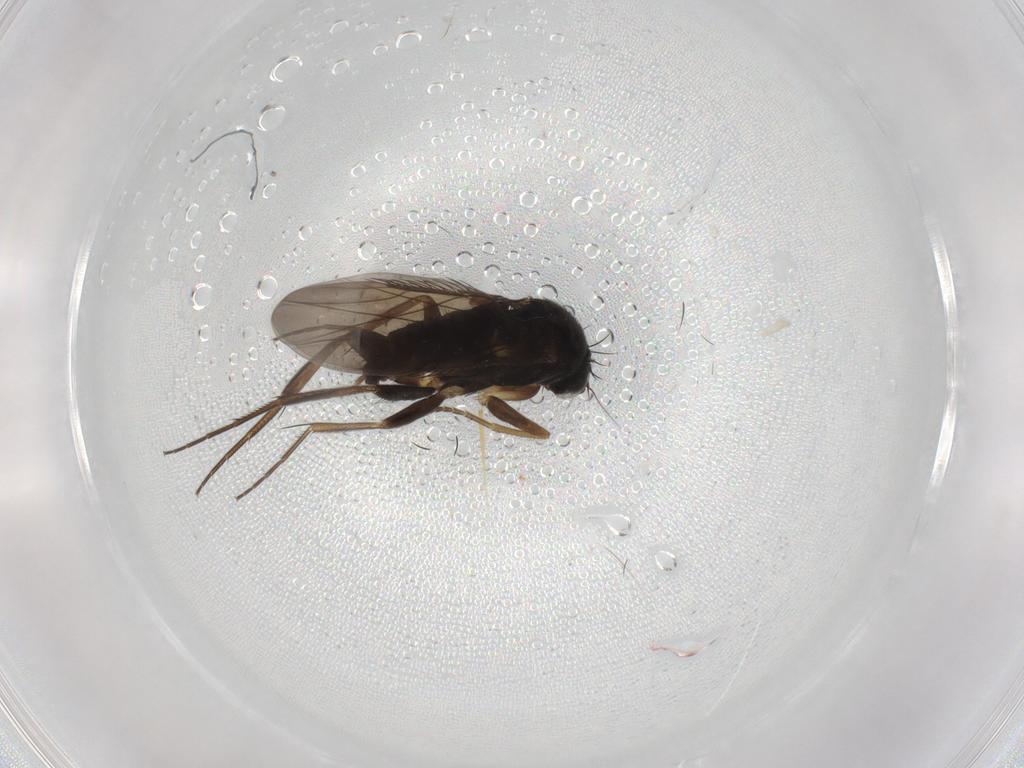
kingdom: Animalia
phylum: Arthropoda
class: Insecta
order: Diptera
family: Phoridae
